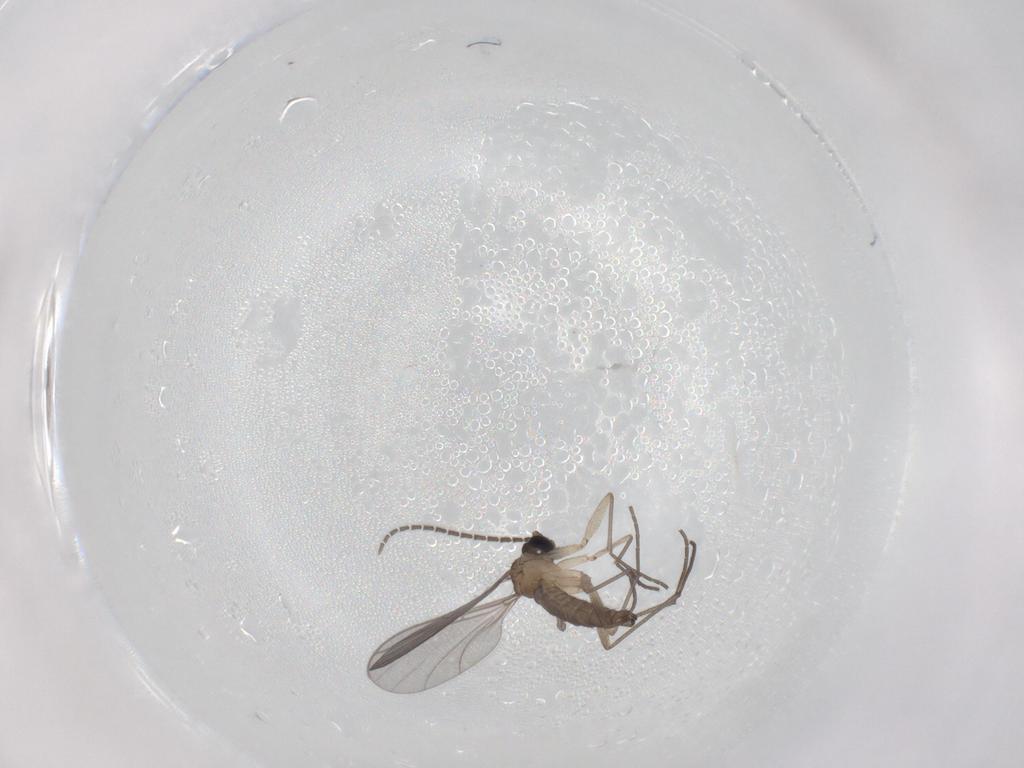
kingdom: Animalia
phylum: Arthropoda
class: Insecta
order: Diptera
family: Sciaridae
